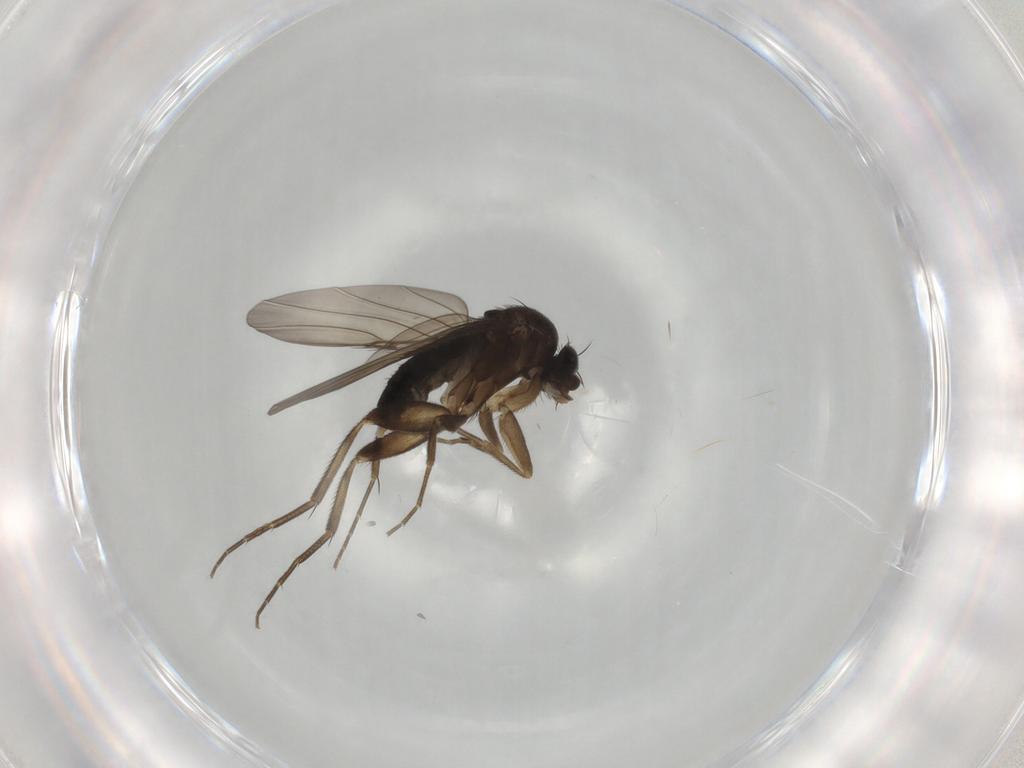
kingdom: Animalia
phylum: Arthropoda
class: Insecta
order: Diptera
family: Phoridae
